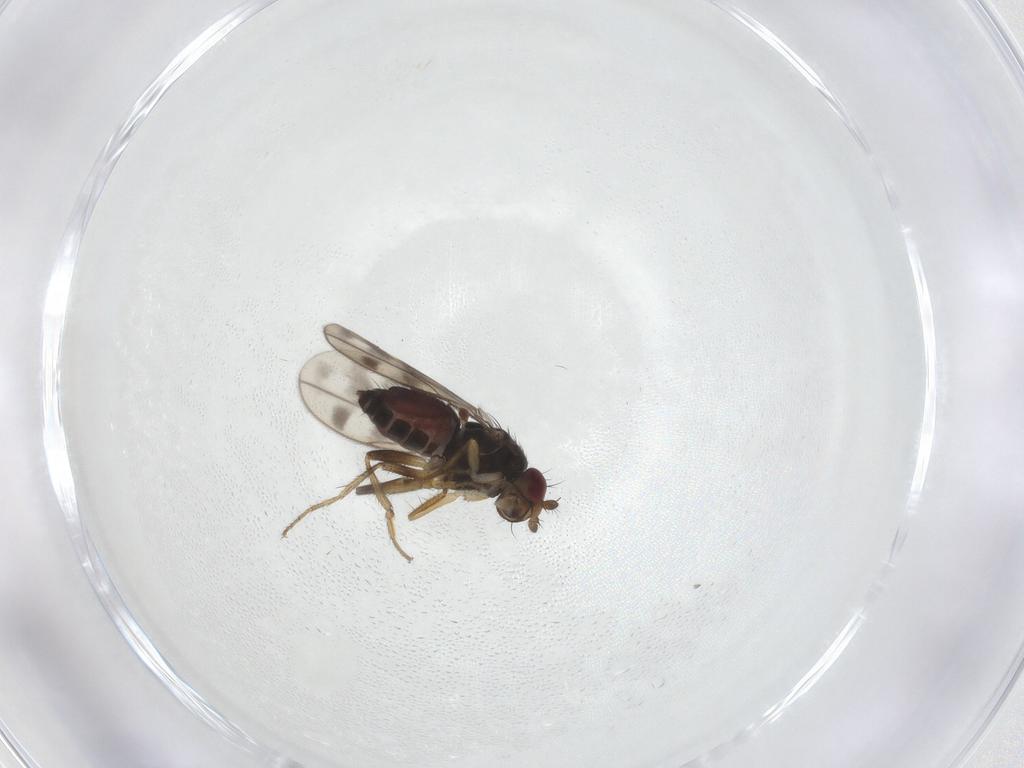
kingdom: Animalia
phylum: Arthropoda
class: Insecta
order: Diptera
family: Sphaeroceridae
